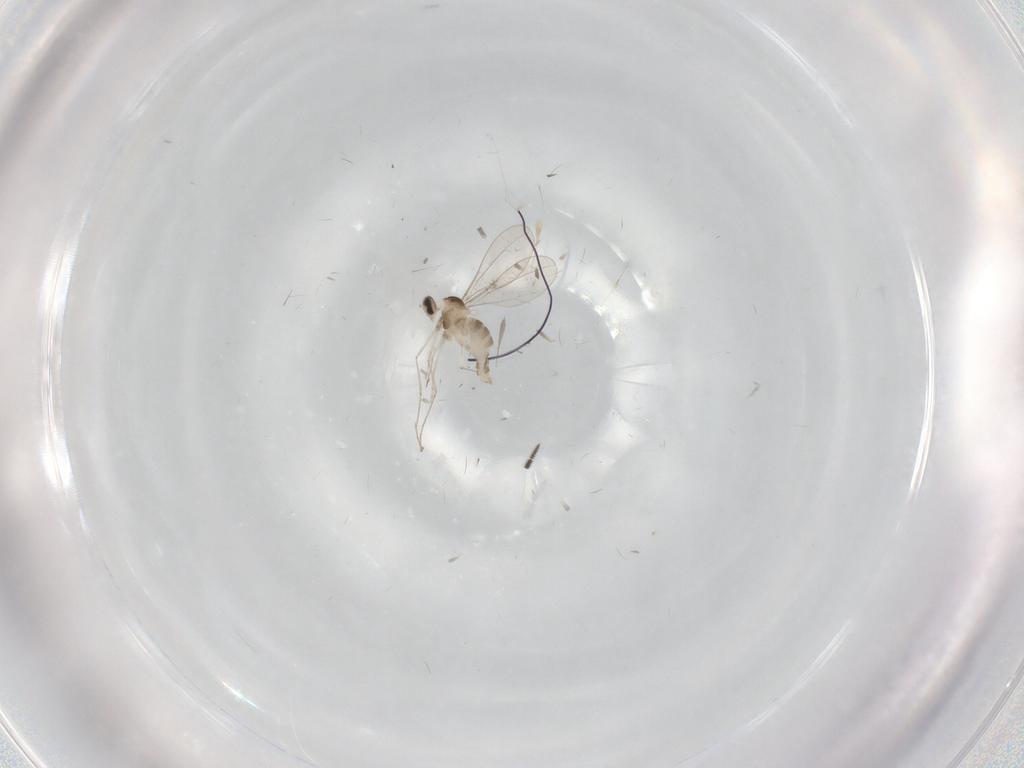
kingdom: Animalia
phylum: Arthropoda
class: Insecta
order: Diptera
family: Cecidomyiidae
